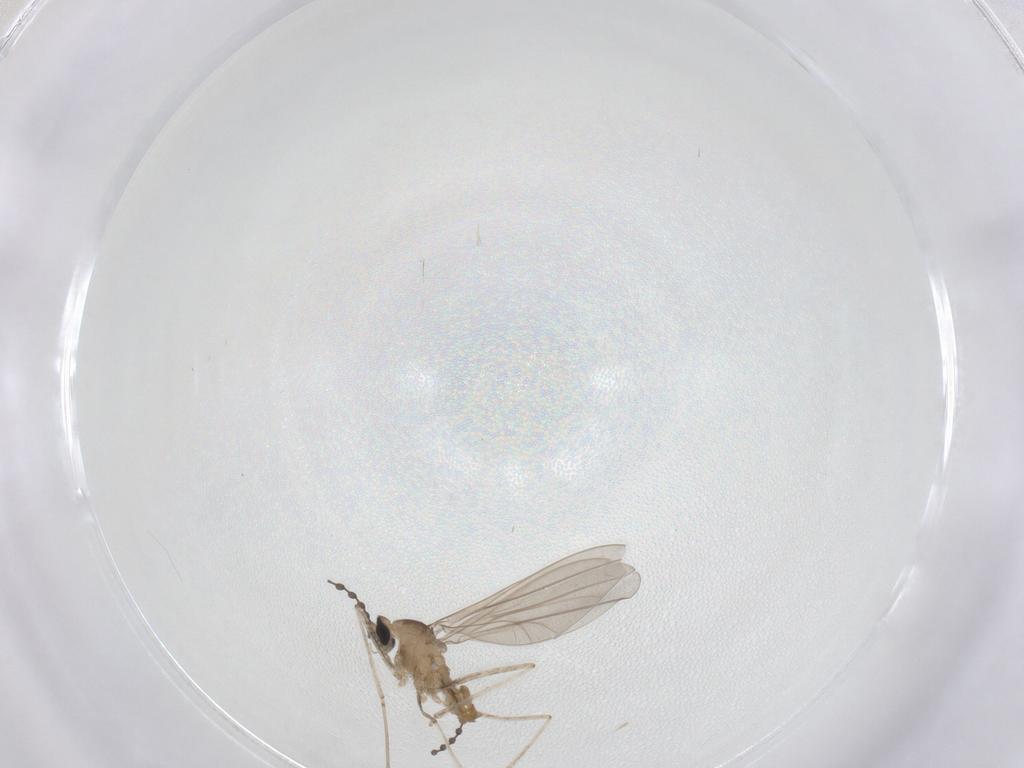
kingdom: Animalia
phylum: Arthropoda
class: Insecta
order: Diptera
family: Cecidomyiidae
